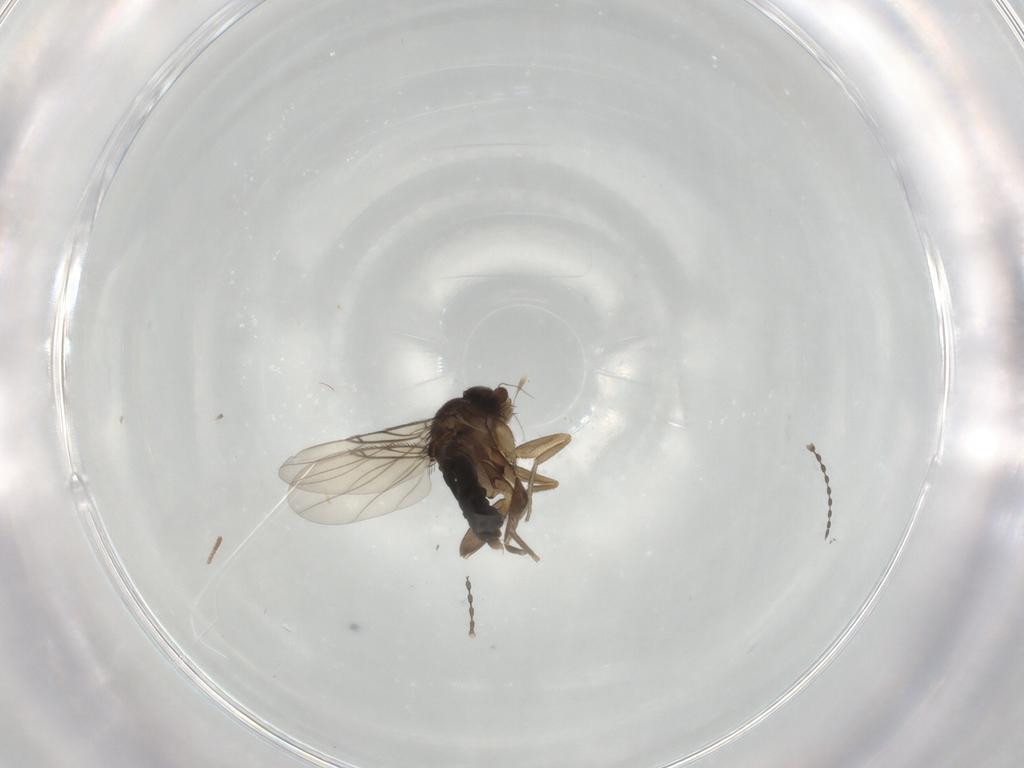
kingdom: Animalia
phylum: Arthropoda
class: Insecta
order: Diptera
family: Phoridae
